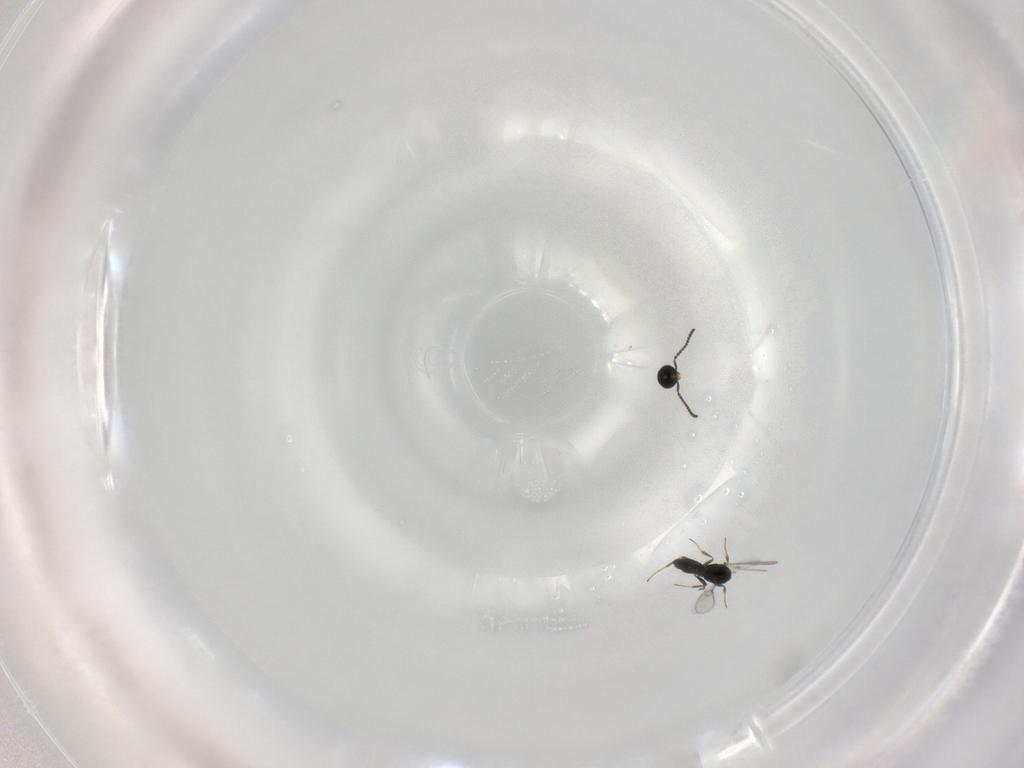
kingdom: Animalia
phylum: Arthropoda
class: Insecta
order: Hymenoptera
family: Scelionidae
